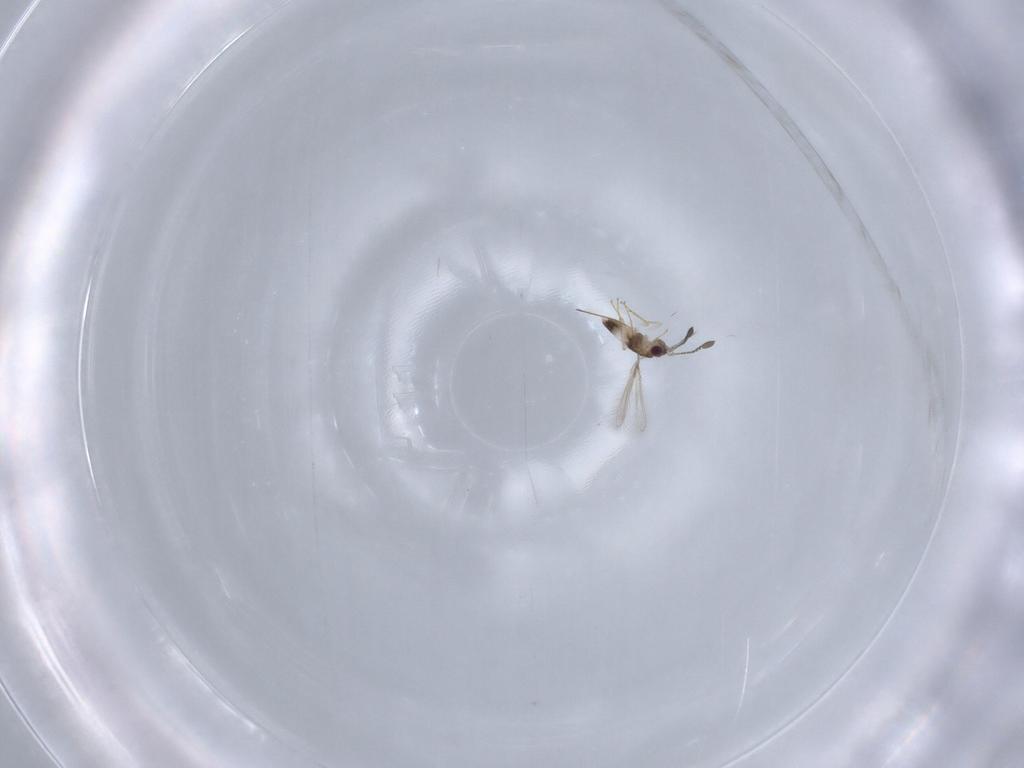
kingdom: Animalia
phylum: Arthropoda
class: Insecta
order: Hymenoptera
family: Mymaridae
